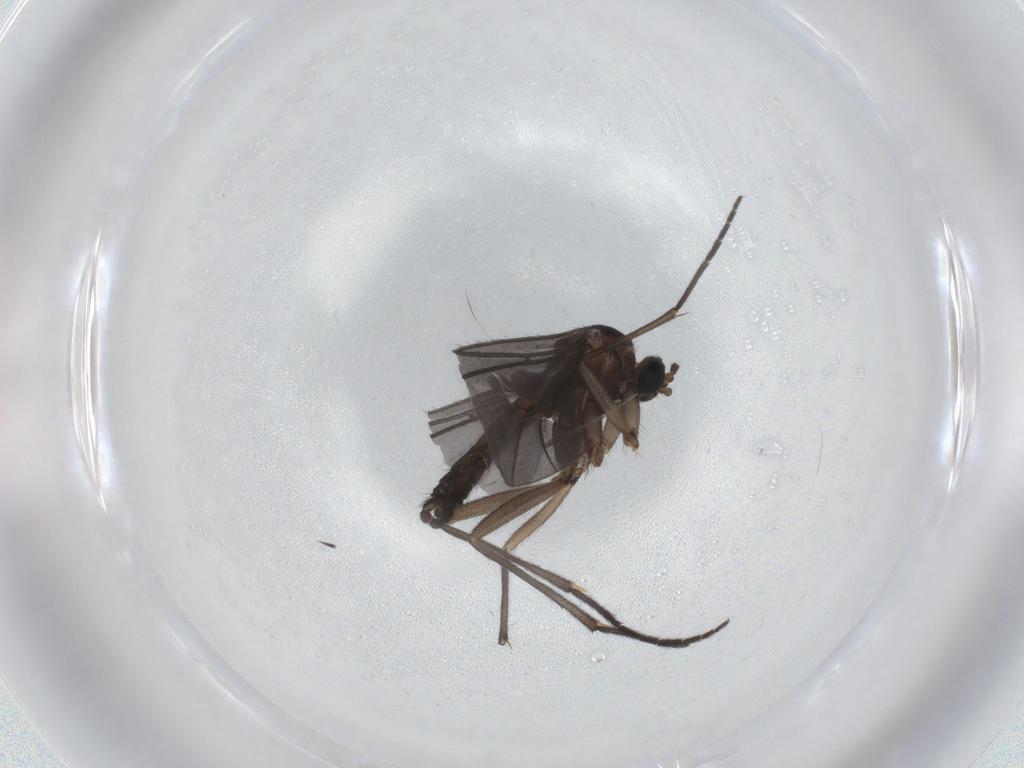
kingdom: Animalia
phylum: Arthropoda
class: Insecta
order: Diptera
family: Sciaridae
